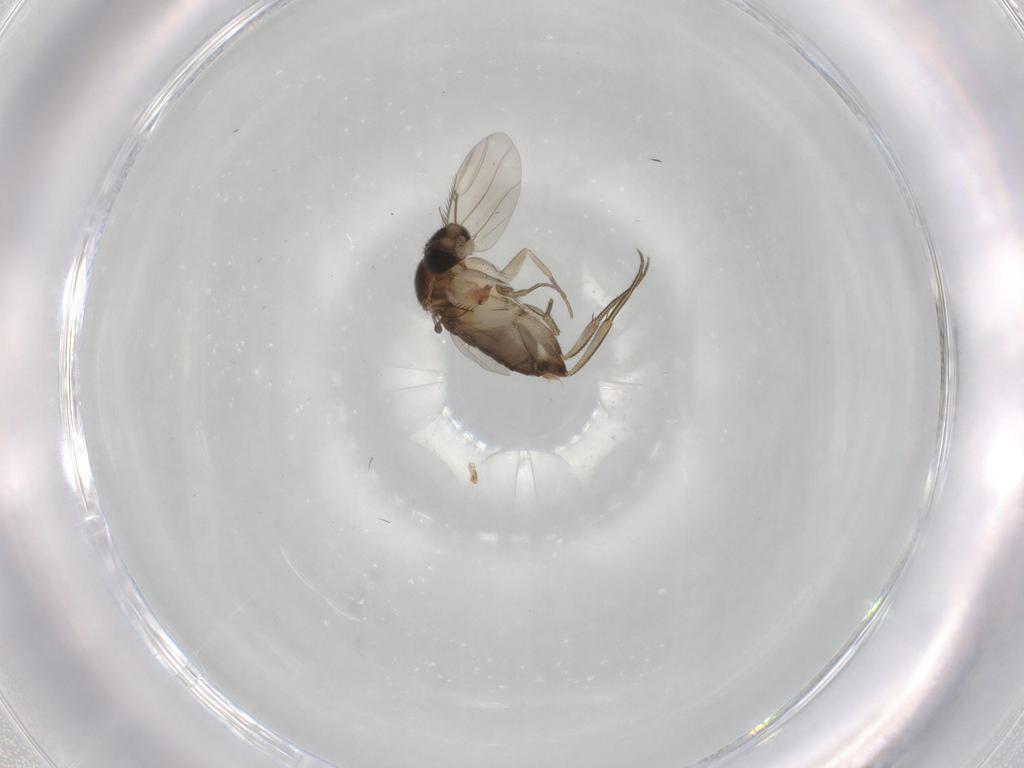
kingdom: Animalia
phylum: Arthropoda
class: Insecta
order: Diptera
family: Phoridae
